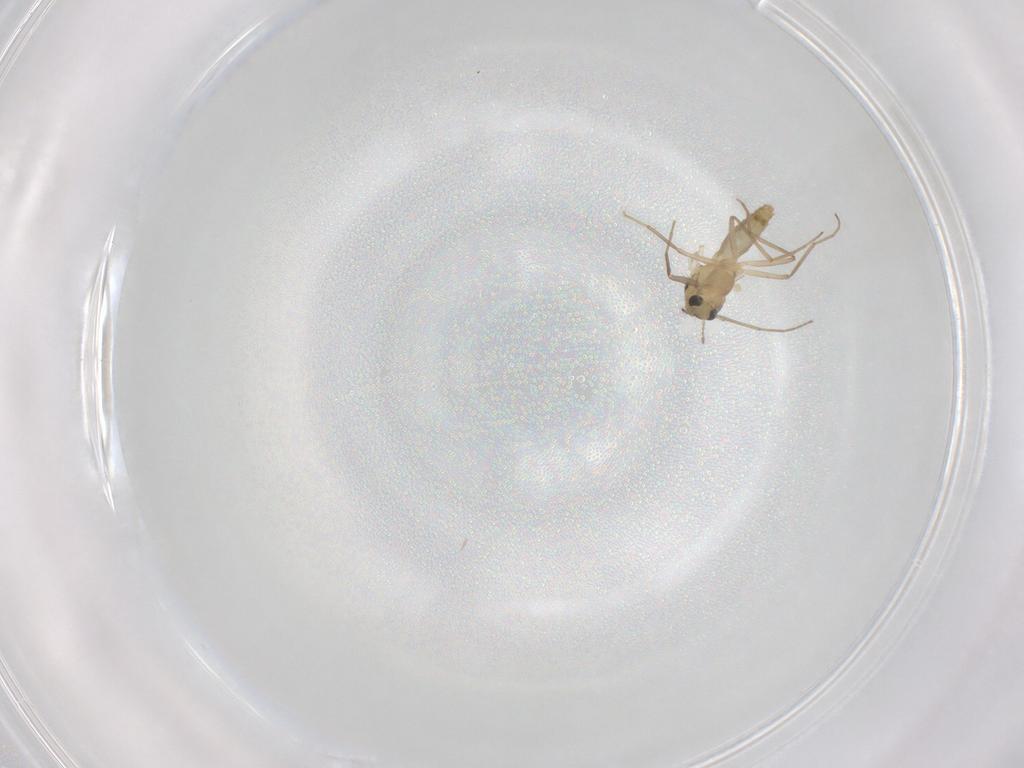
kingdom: Animalia
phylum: Arthropoda
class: Insecta
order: Diptera
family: Chironomidae
